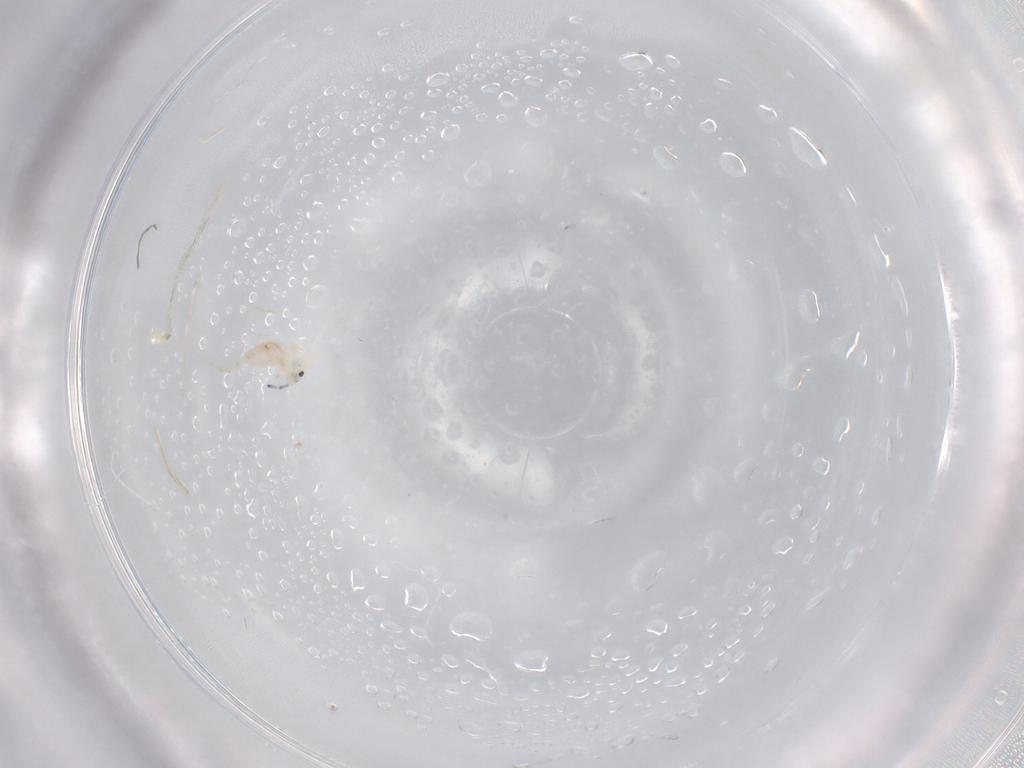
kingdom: Animalia
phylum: Arthropoda
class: Collembola
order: Entomobryomorpha
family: Entomobryidae
